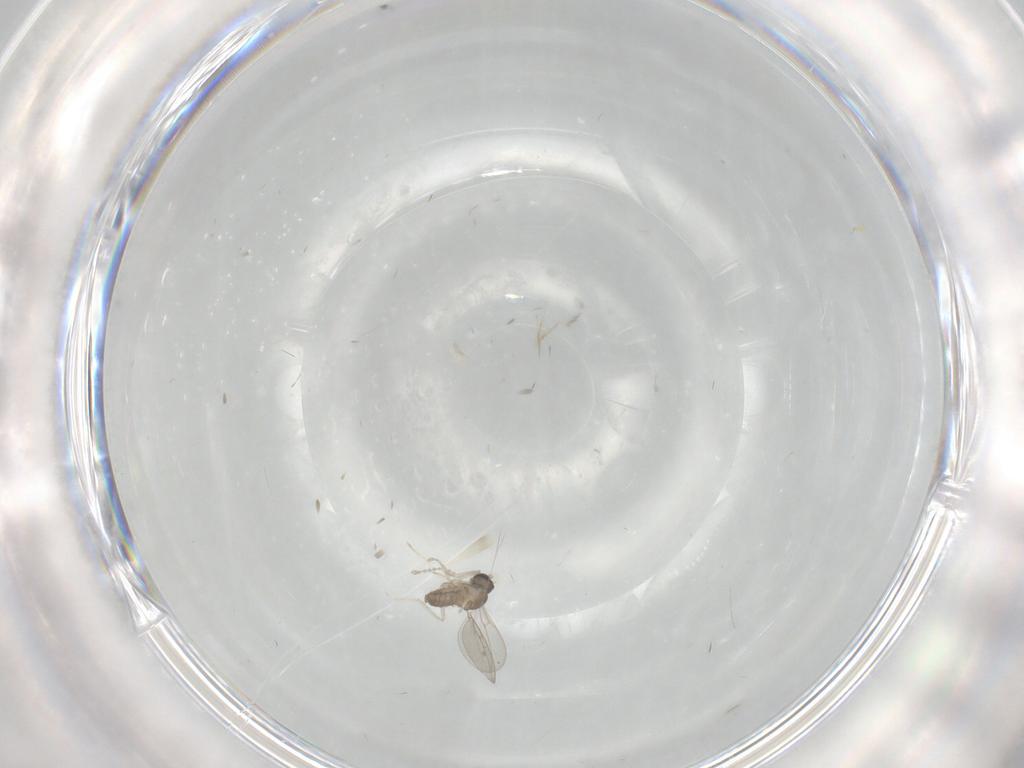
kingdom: Animalia
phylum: Arthropoda
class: Insecta
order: Diptera
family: Cecidomyiidae
